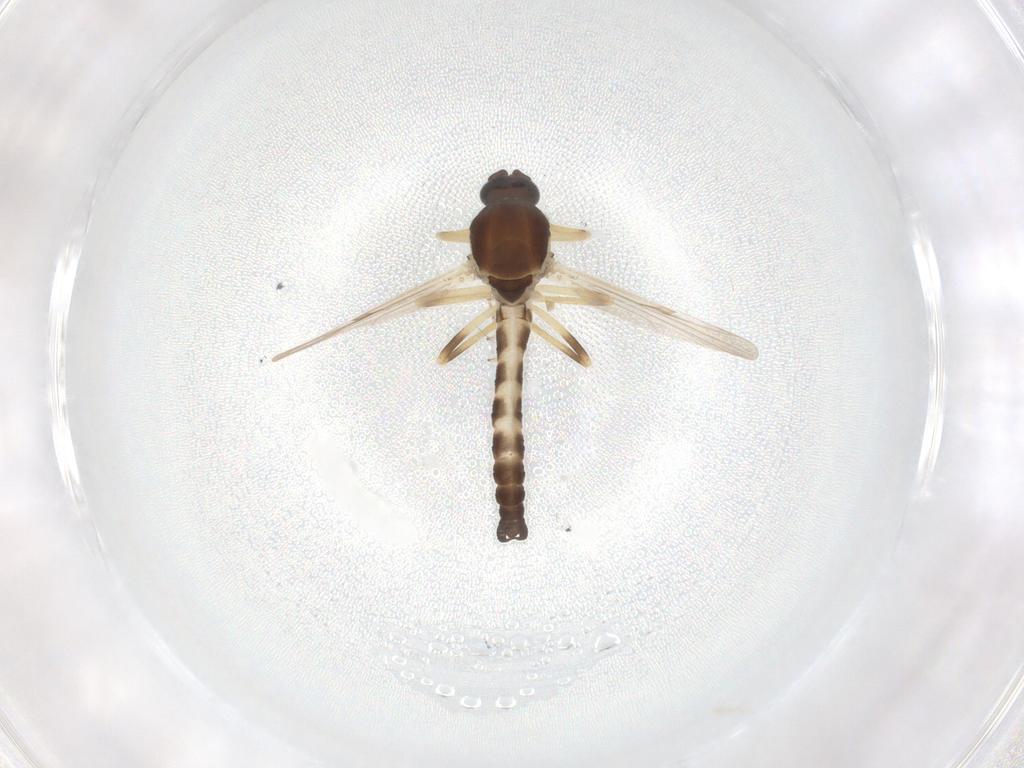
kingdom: Animalia
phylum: Arthropoda
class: Insecta
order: Diptera
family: Ceratopogonidae
